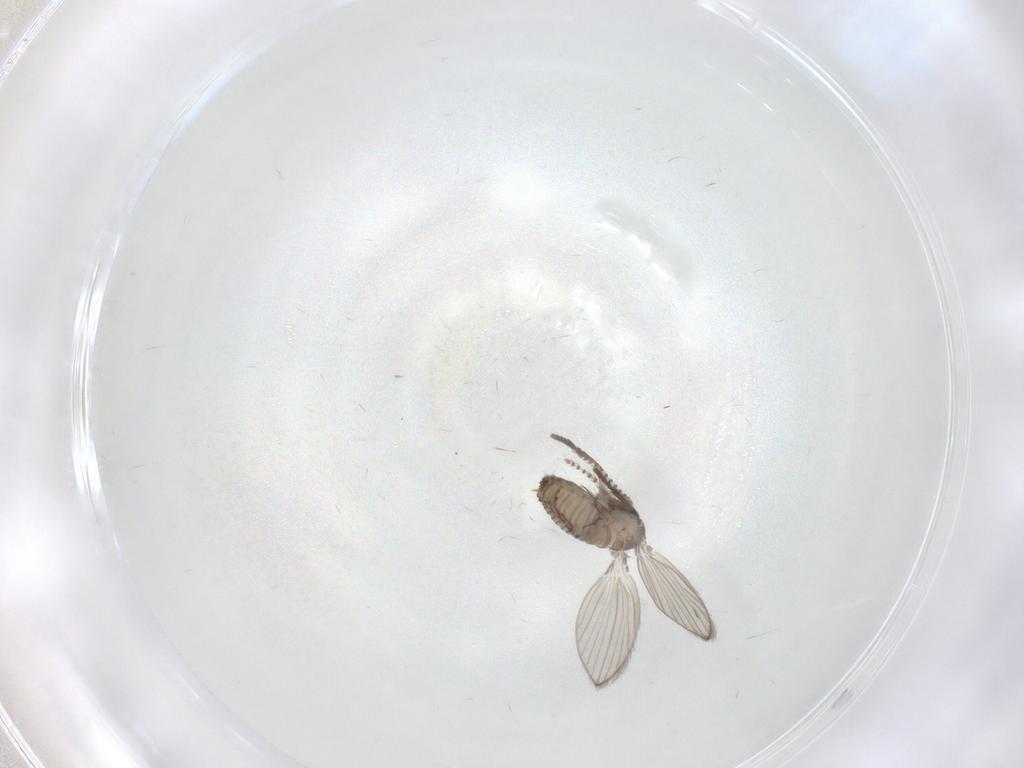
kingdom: Animalia
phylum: Arthropoda
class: Insecta
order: Diptera
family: Psychodidae
